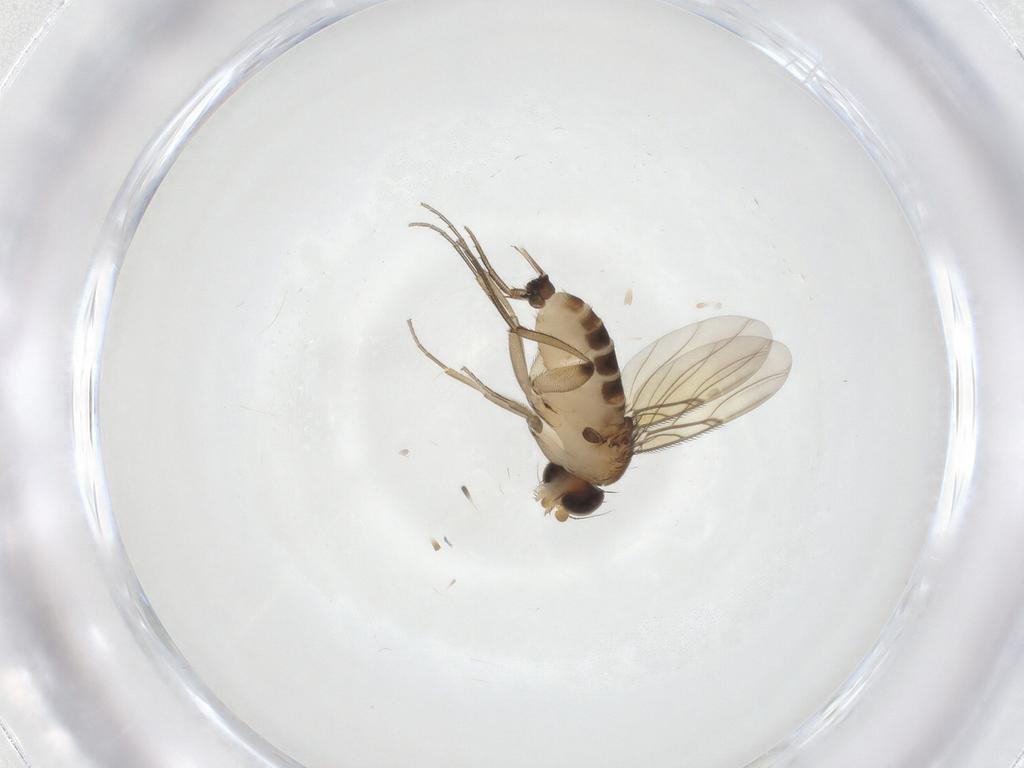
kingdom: Animalia
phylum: Arthropoda
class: Insecta
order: Diptera
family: Phoridae
